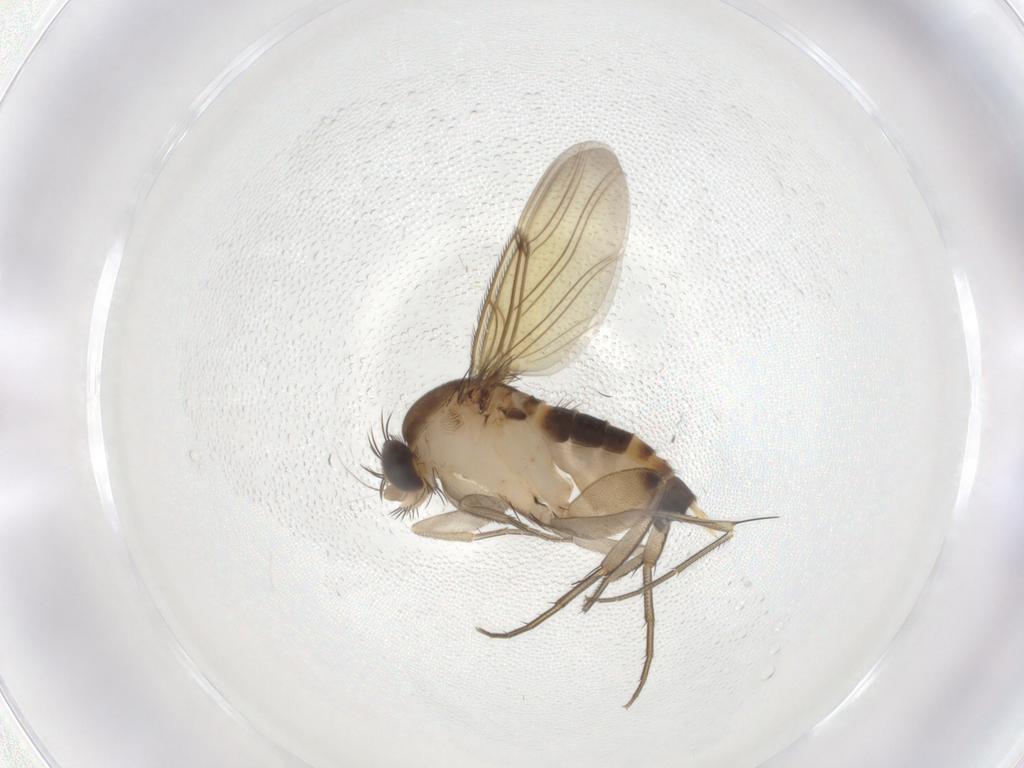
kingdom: Animalia
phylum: Arthropoda
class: Insecta
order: Diptera
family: Phoridae
